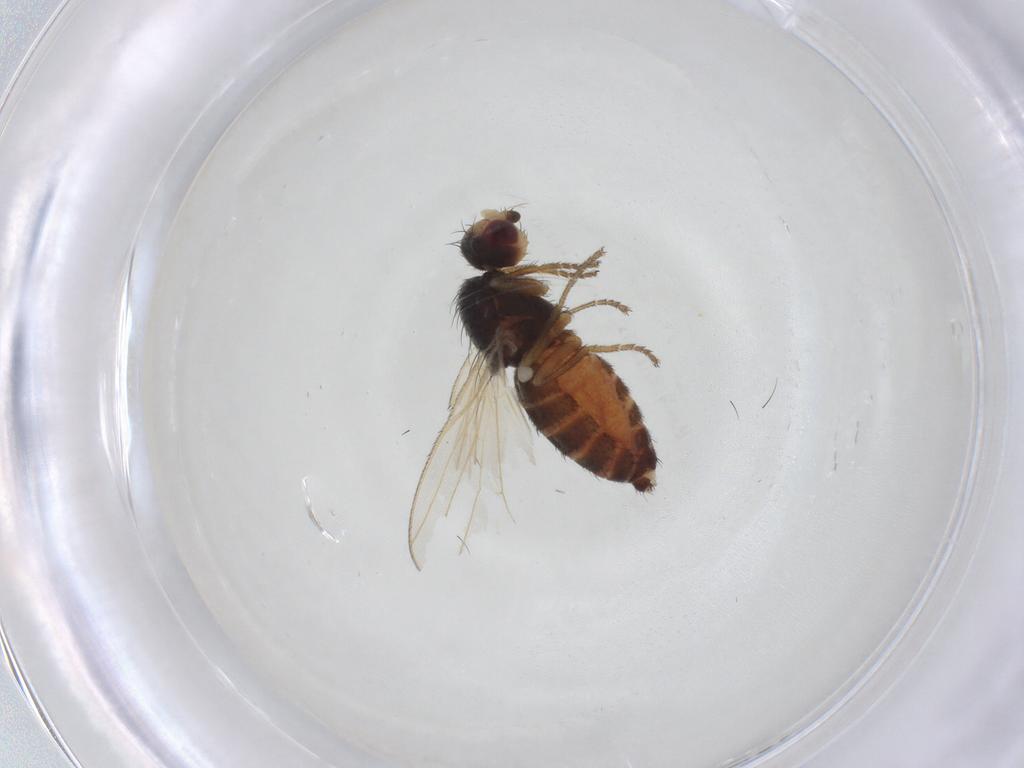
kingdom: Animalia
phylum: Arthropoda
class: Insecta
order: Diptera
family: Heleomyzidae
